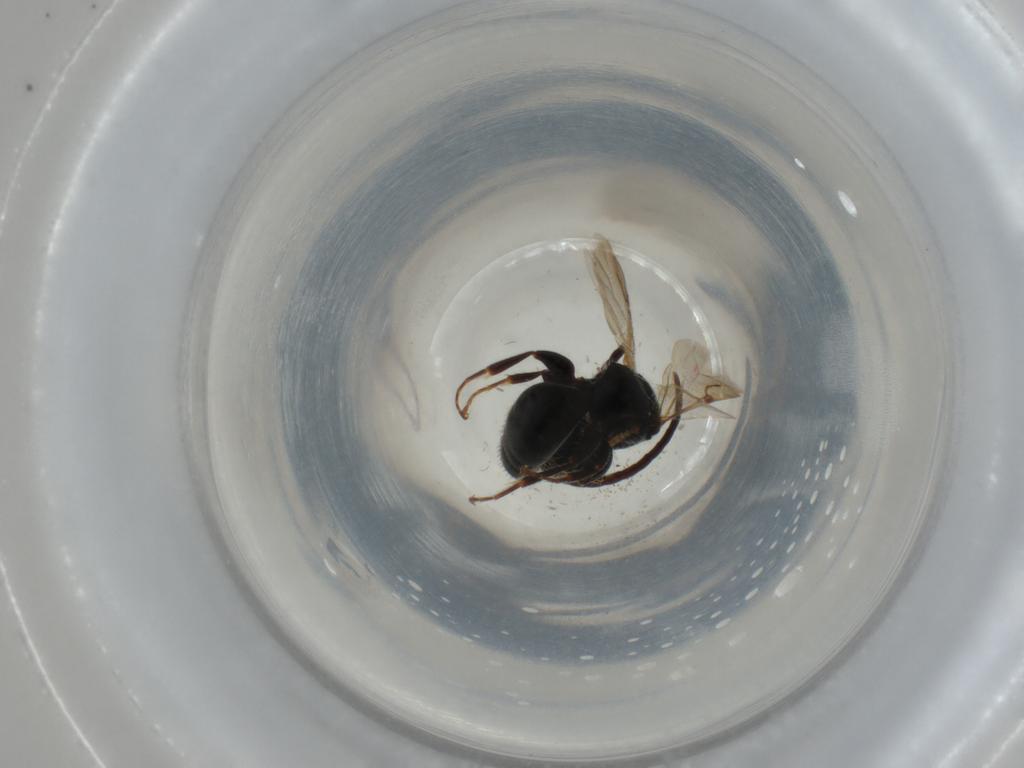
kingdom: Animalia
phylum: Arthropoda
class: Insecta
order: Hymenoptera
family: Bethylidae
